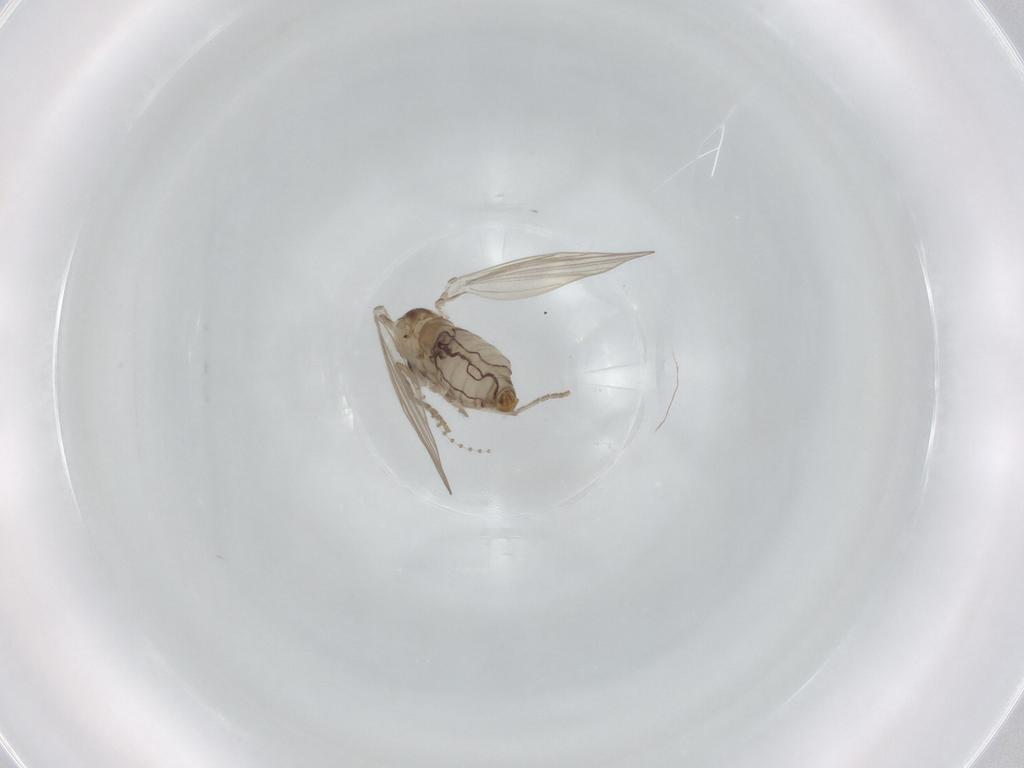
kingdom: Animalia
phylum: Arthropoda
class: Insecta
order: Diptera
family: Psychodidae
